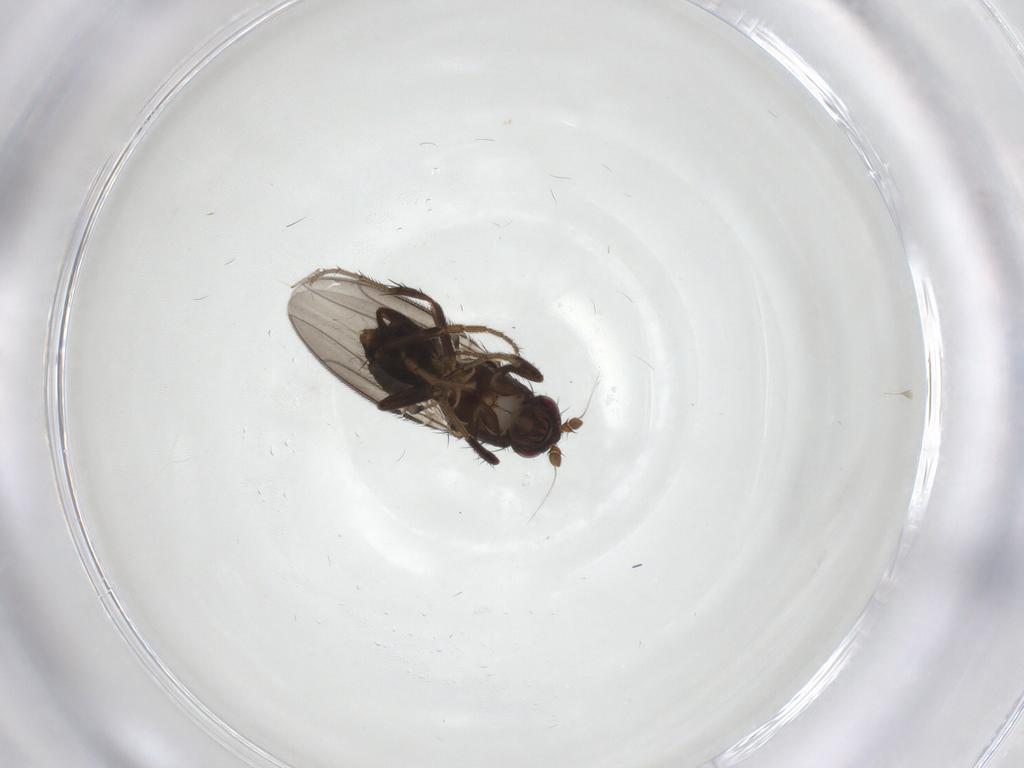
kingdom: Animalia
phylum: Arthropoda
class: Insecta
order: Diptera
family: Sphaeroceridae
